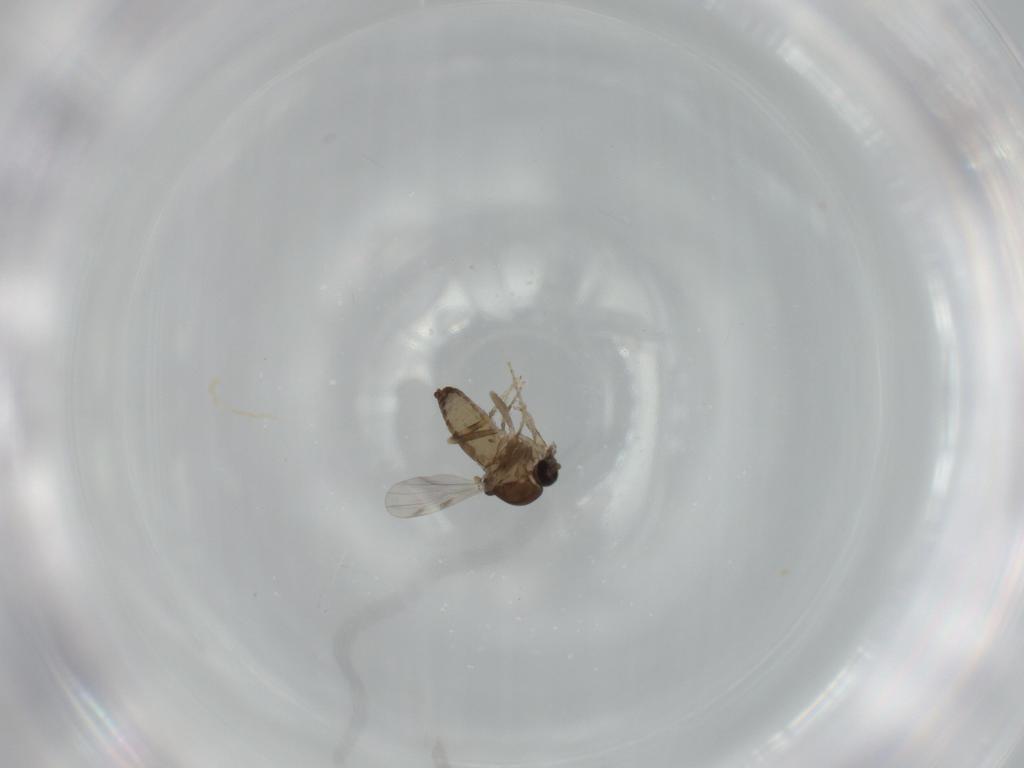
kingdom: Animalia
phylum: Arthropoda
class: Insecta
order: Diptera
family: Ceratopogonidae
